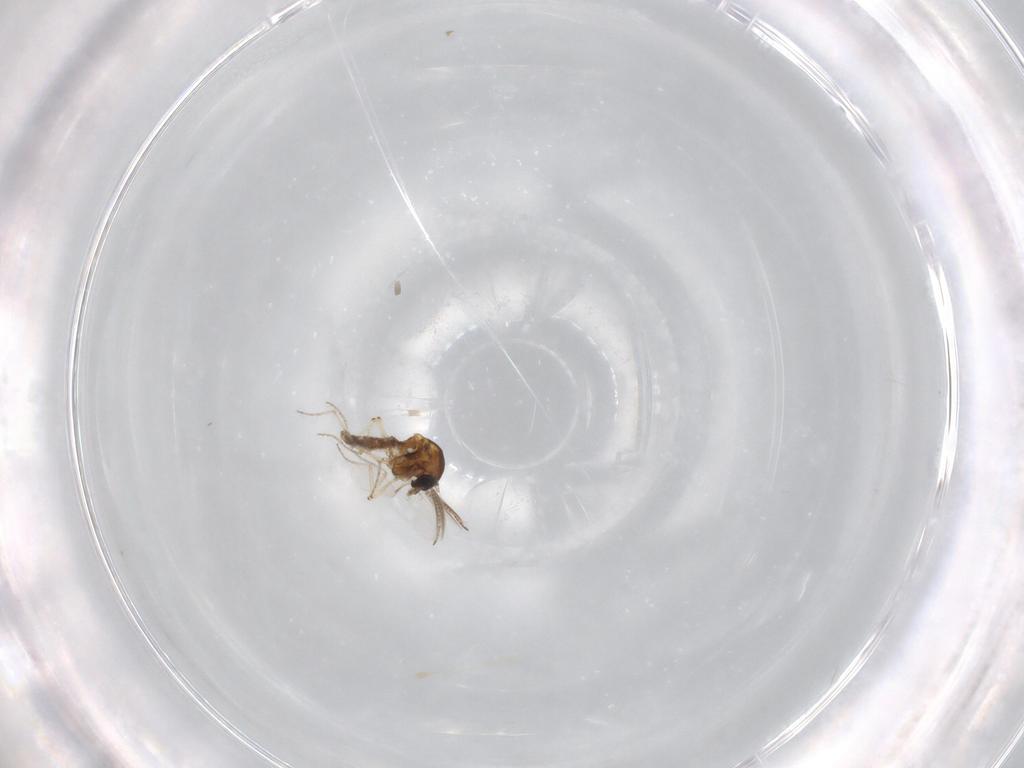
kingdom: Animalia
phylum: Arthropoda
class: Insecta
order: Diptera
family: Ceratopogonidae
